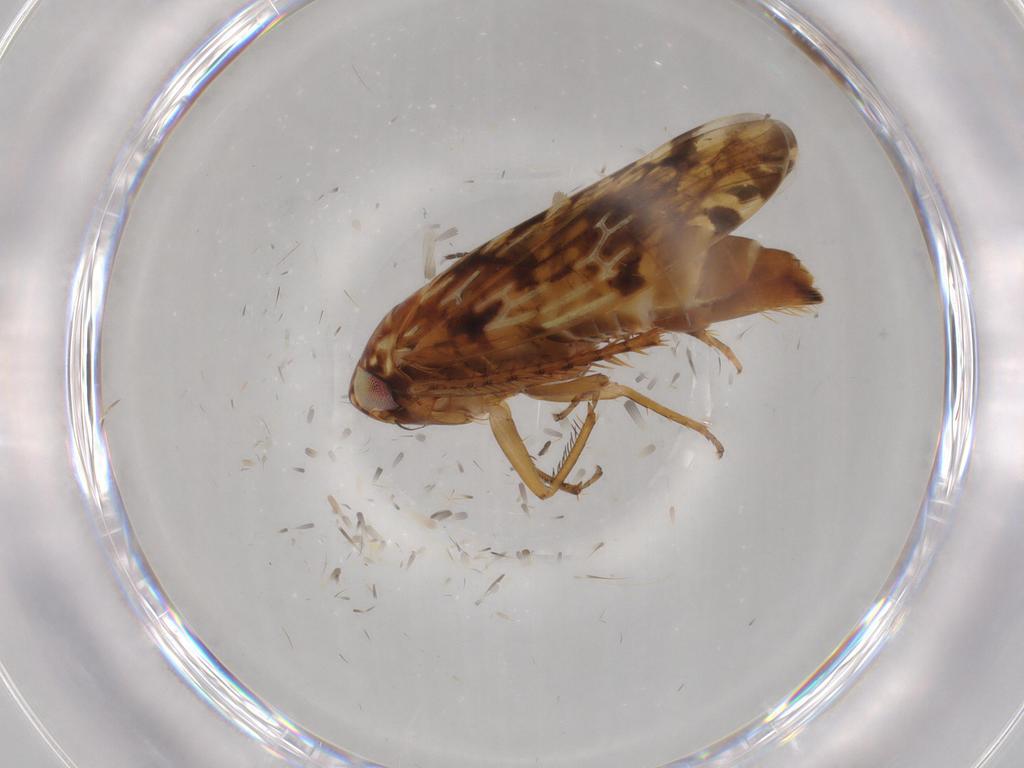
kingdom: Animalia
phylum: Arthropoda
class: Insecta
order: Hemiptera
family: Cicadellidae
